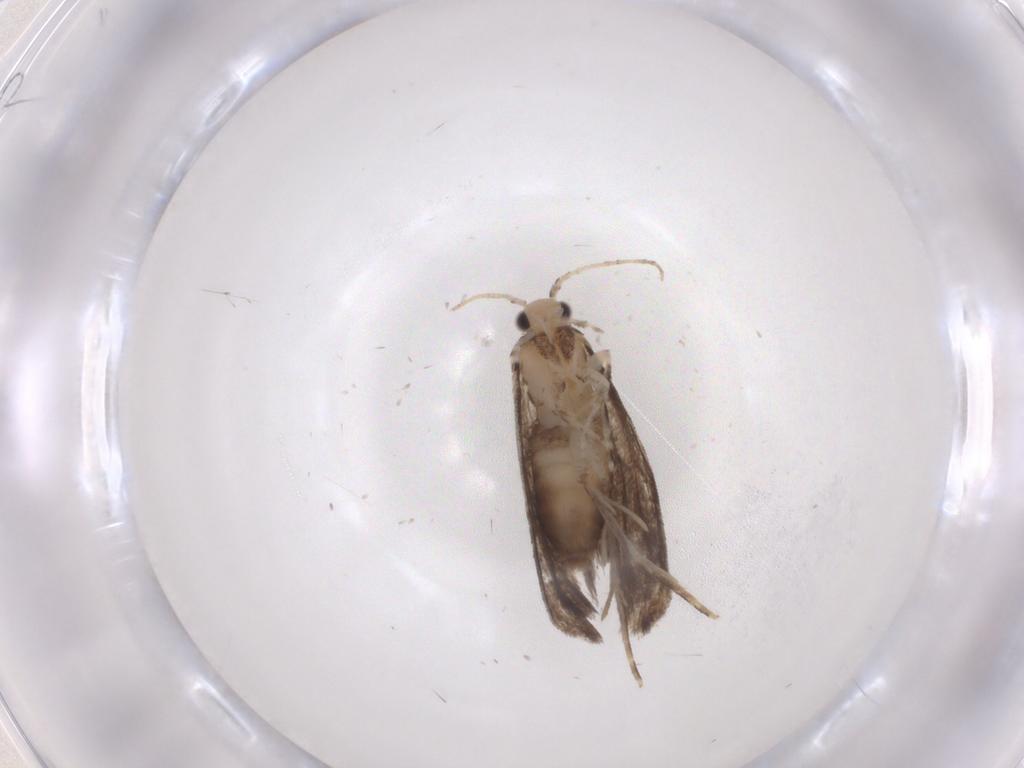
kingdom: Animalia
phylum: Arthropoda
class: Insecta
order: Lepidoptera
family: Tineidae
